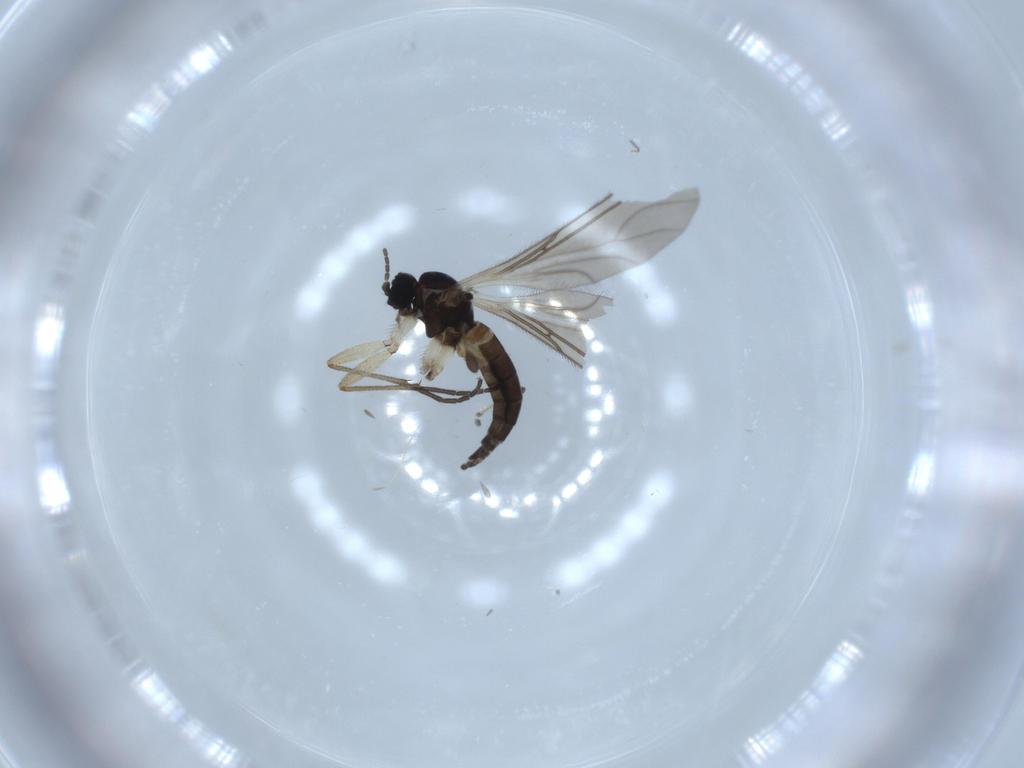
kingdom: Animalia
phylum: Arthropoda
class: Insecta
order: Diptera
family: Sciaridae
